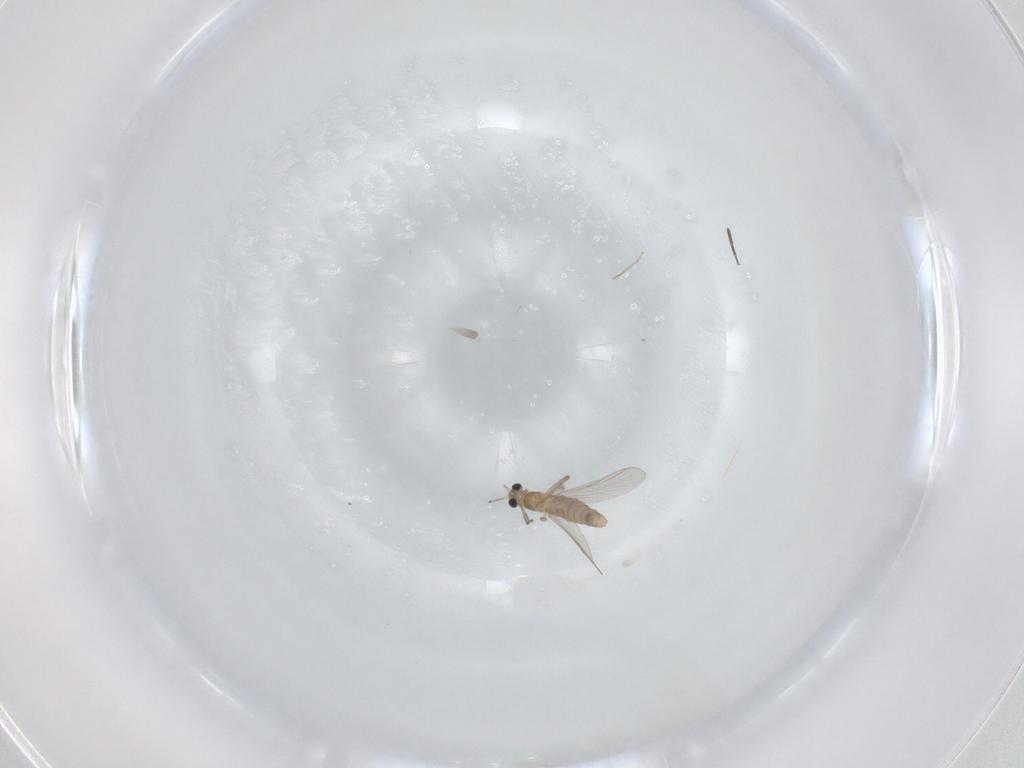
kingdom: Animalia
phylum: Arthropoda
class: Insecta
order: Diptera
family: Phoridae
